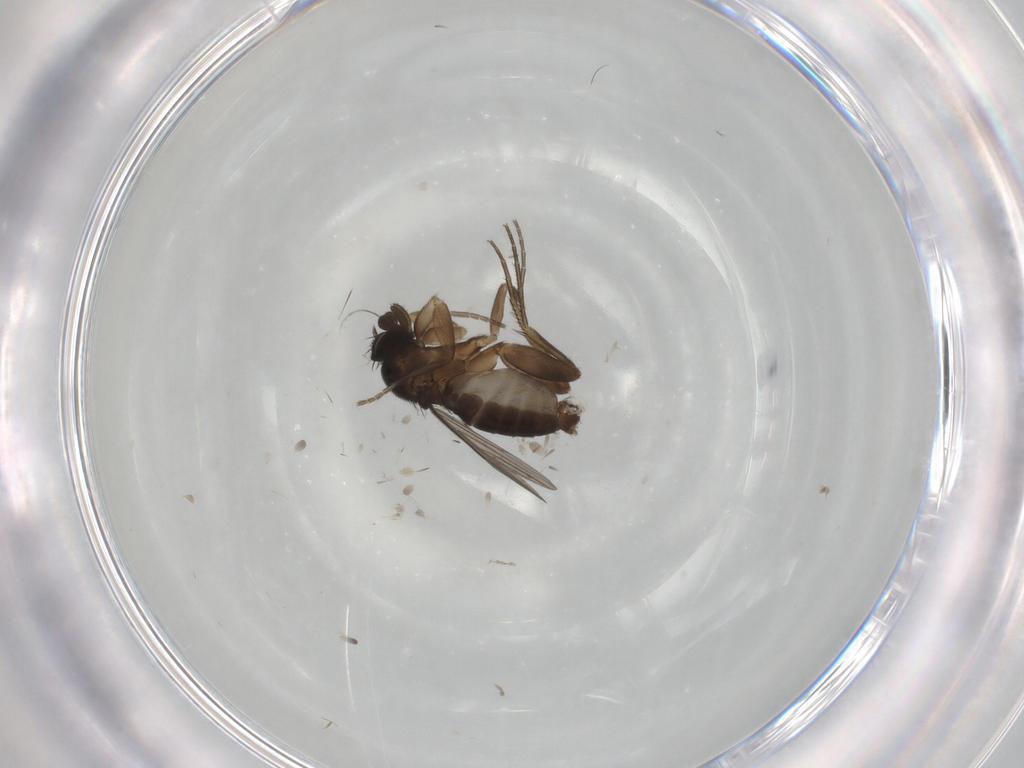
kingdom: Animalia
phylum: Arthropoda
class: Insecta
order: Diptera
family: Phoridae
